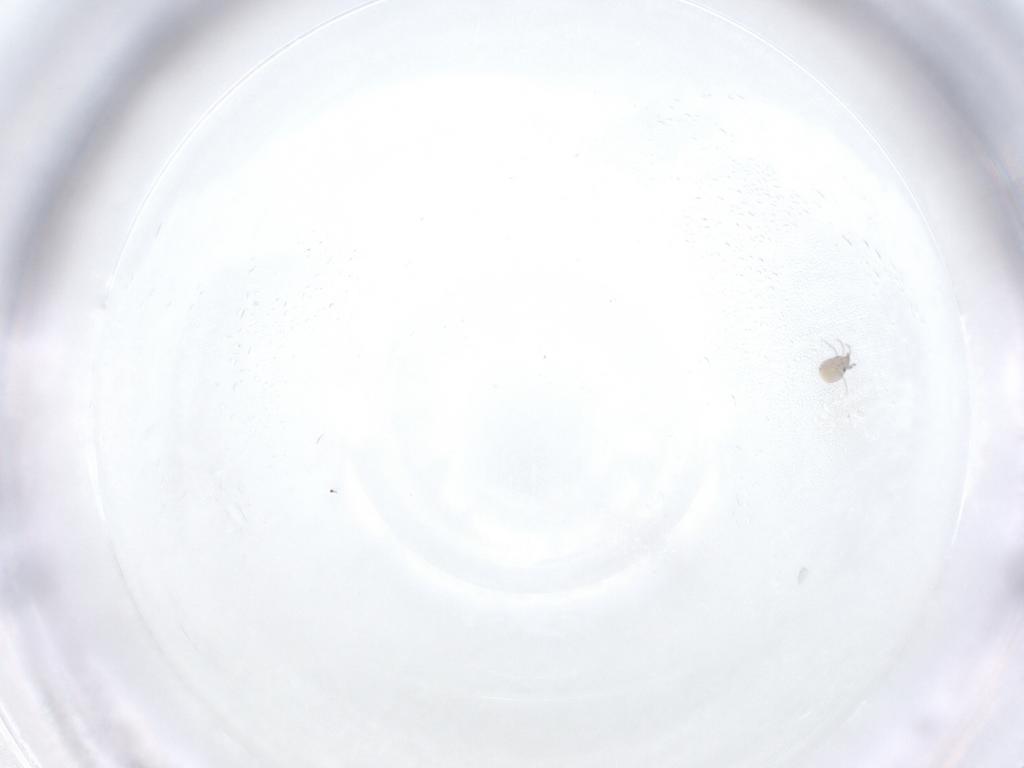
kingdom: Animalia
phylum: Arthropoda
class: Arachnida
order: Trombidiformes
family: Pionidae
